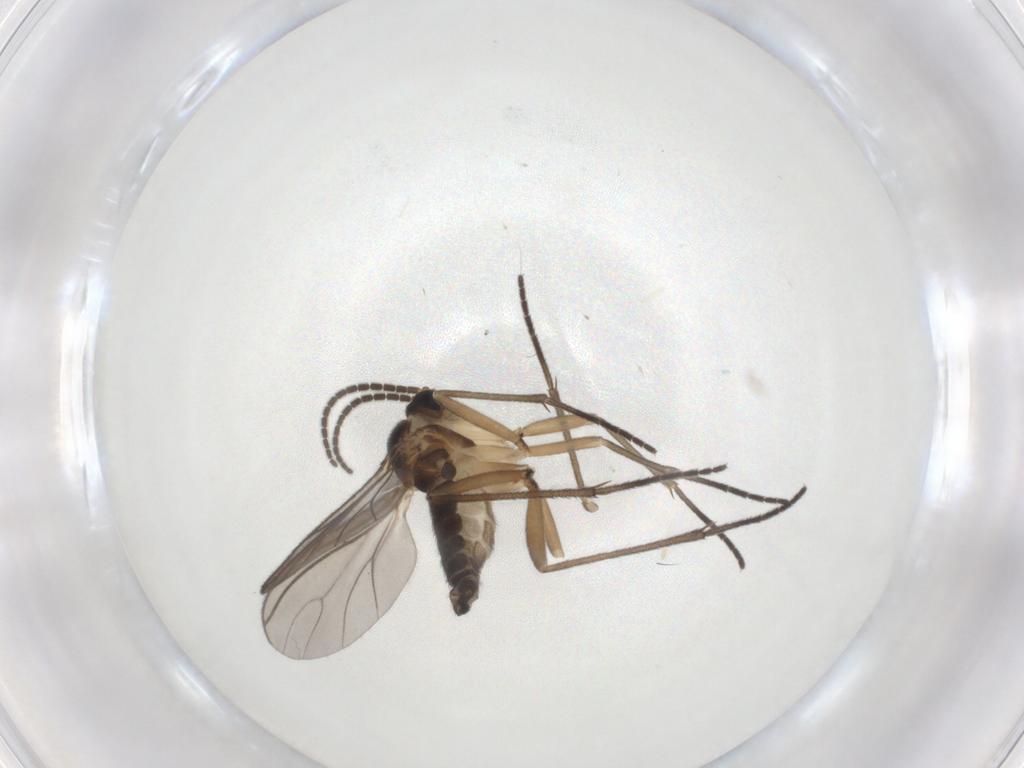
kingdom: Animalia
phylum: Arthropoda
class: Insecta
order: Diptera
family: Sciaridae
